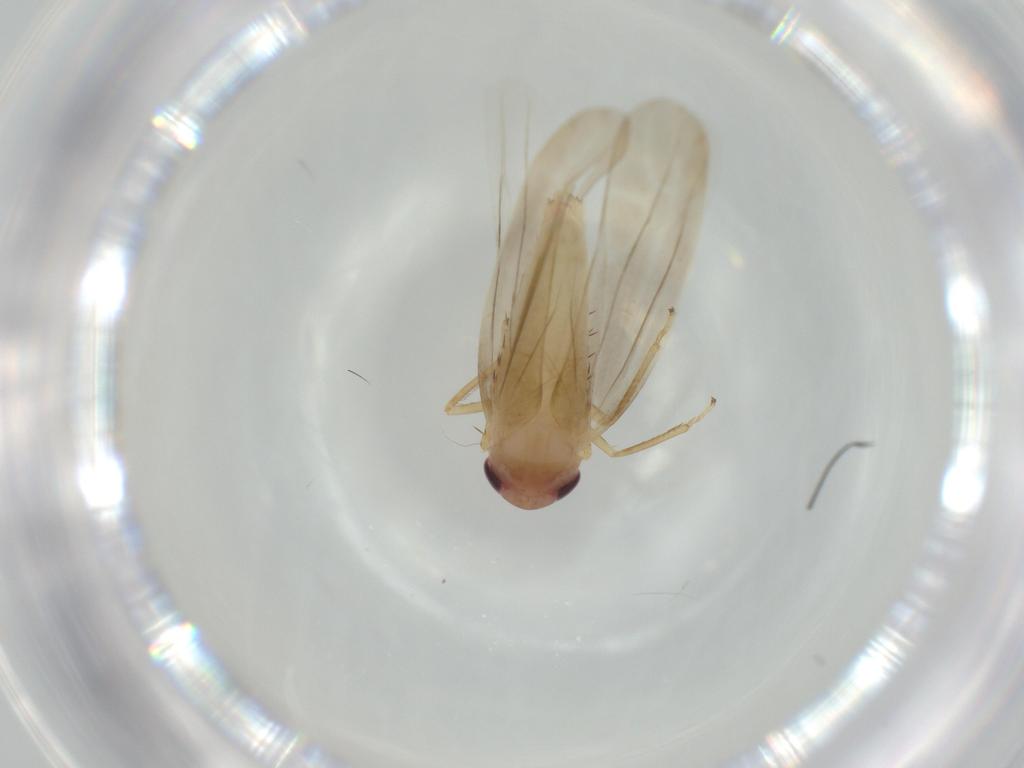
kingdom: Animalia
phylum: Arthropoda
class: Insecta
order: Hemiptera
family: Cicadellidae
